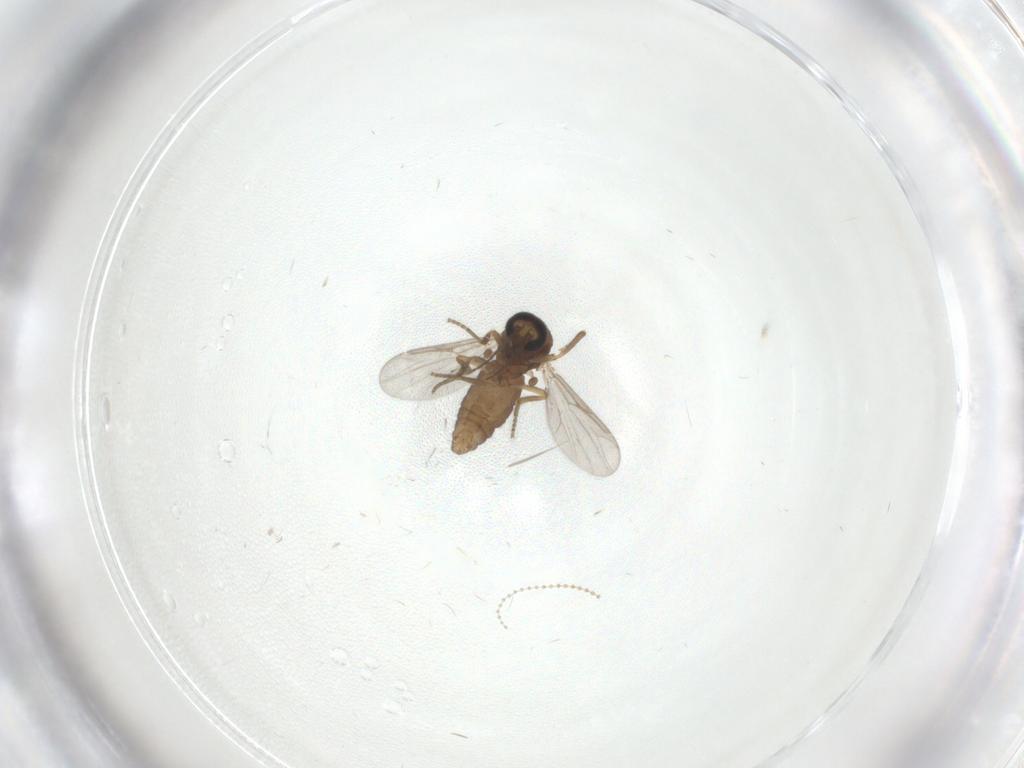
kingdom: Animalia
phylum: Arthropoda
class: Insecta
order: Diptera
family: Ceratopogonidae
